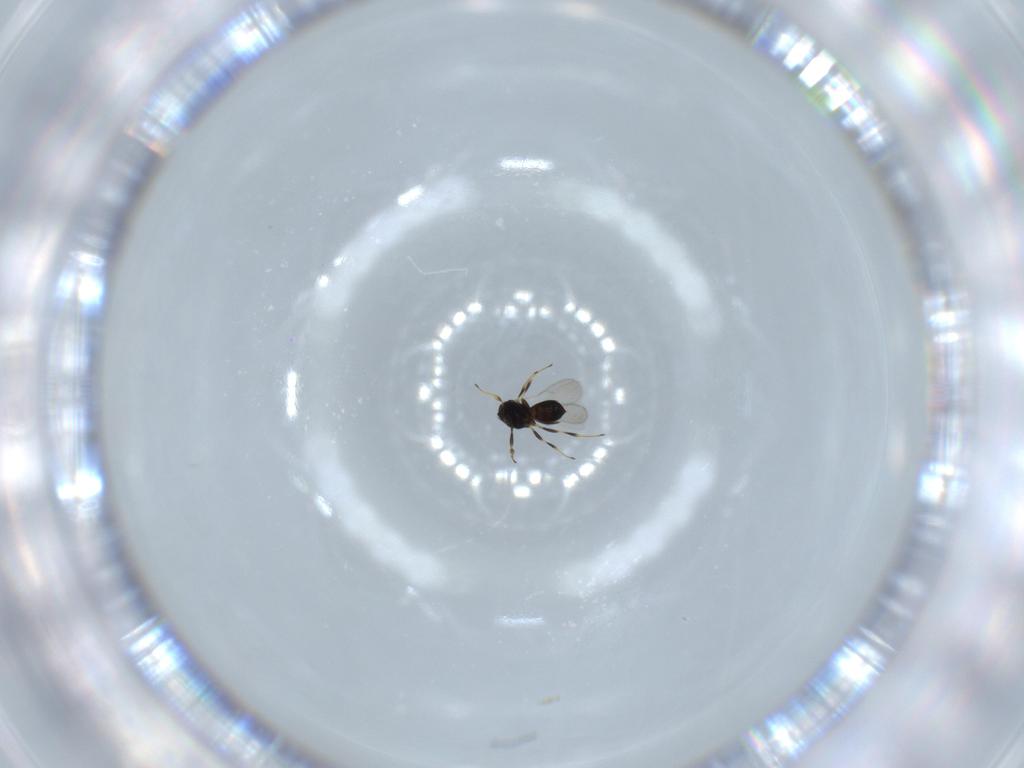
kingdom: Animalia
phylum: Arthropoda
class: Insecta
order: Hymenoptera
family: Scelionidae
